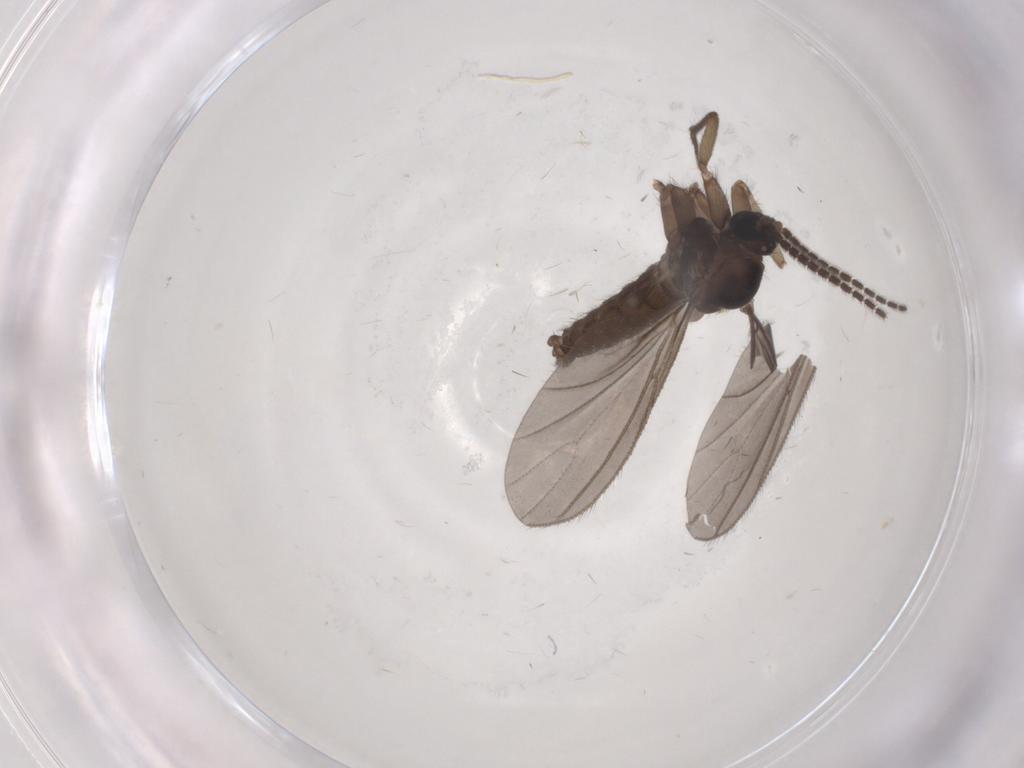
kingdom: Animalia
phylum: Arthropoda
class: Insecta
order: Diptera
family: Sciaridae
